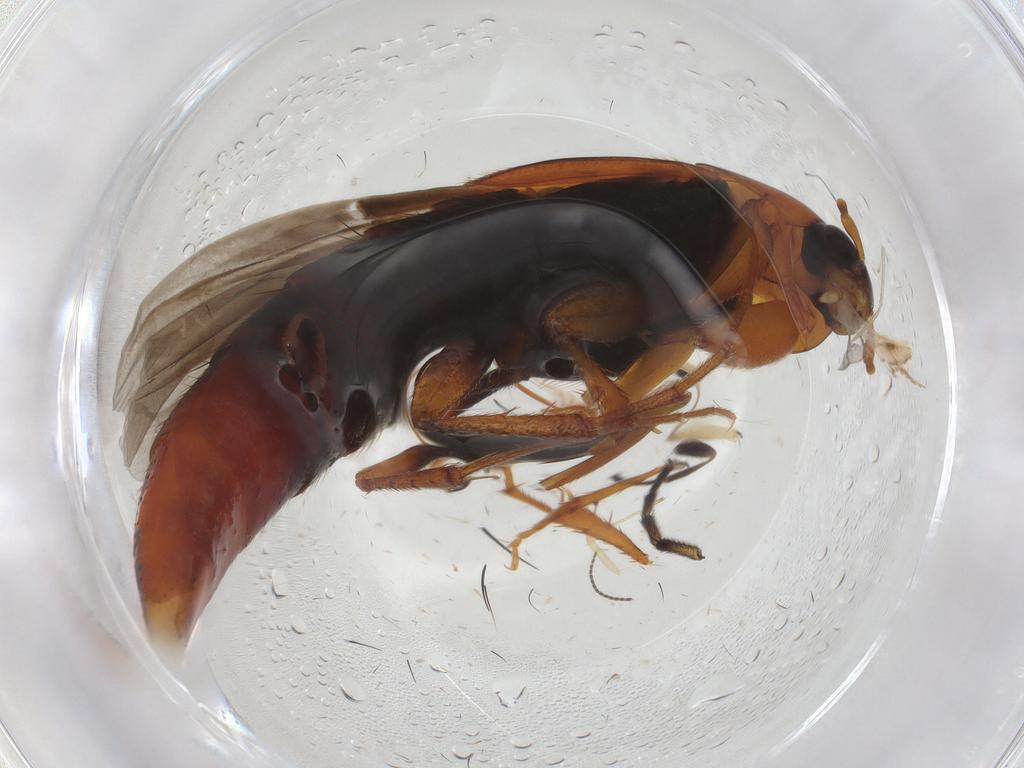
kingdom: Animalia
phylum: Arthropoda
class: Insecta
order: Coleoptera
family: Staphylinidae
